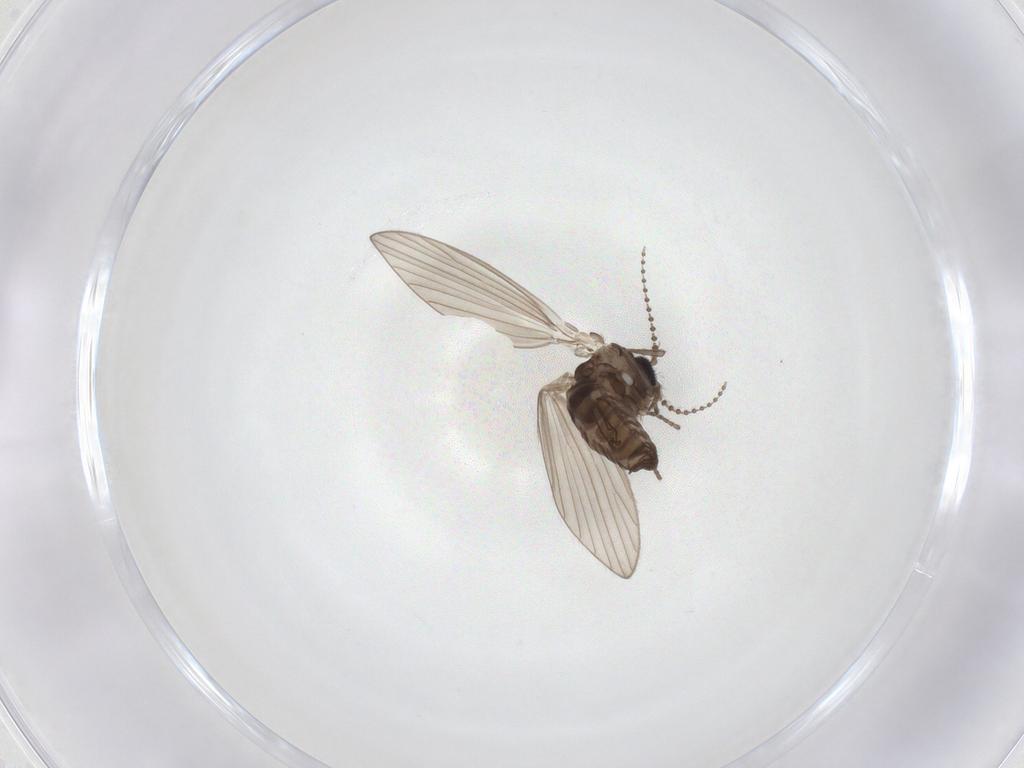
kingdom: Animalia
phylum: Arthropoda
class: Insecta
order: Diptera
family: Psychodidae
